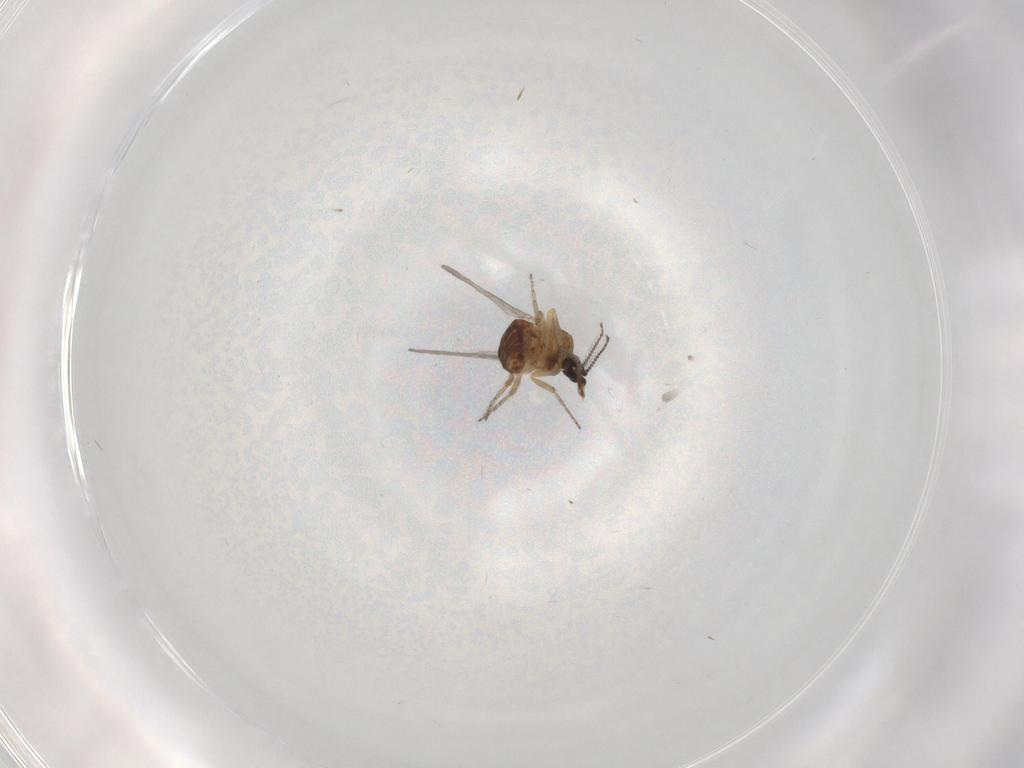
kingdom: Animalia
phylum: Arthropoda
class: Insecta
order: Diptera
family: Ceratopogonidae
